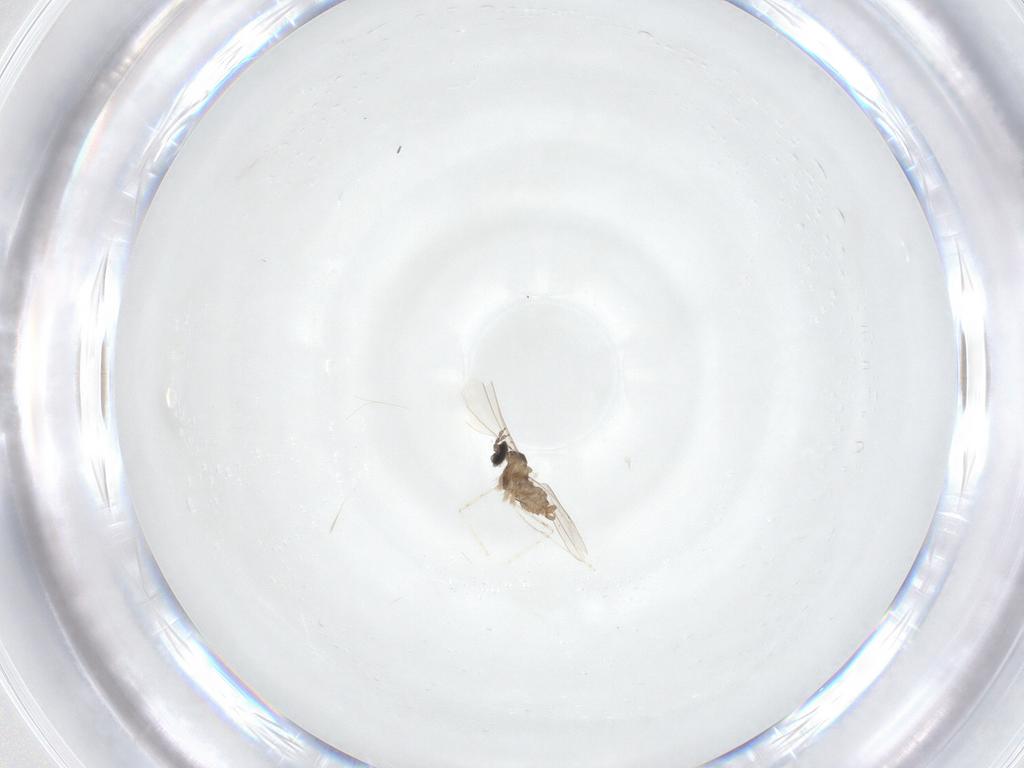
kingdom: Animalia
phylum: Arthropoda
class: Insecta
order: Diptera
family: Cecidomyiidae
